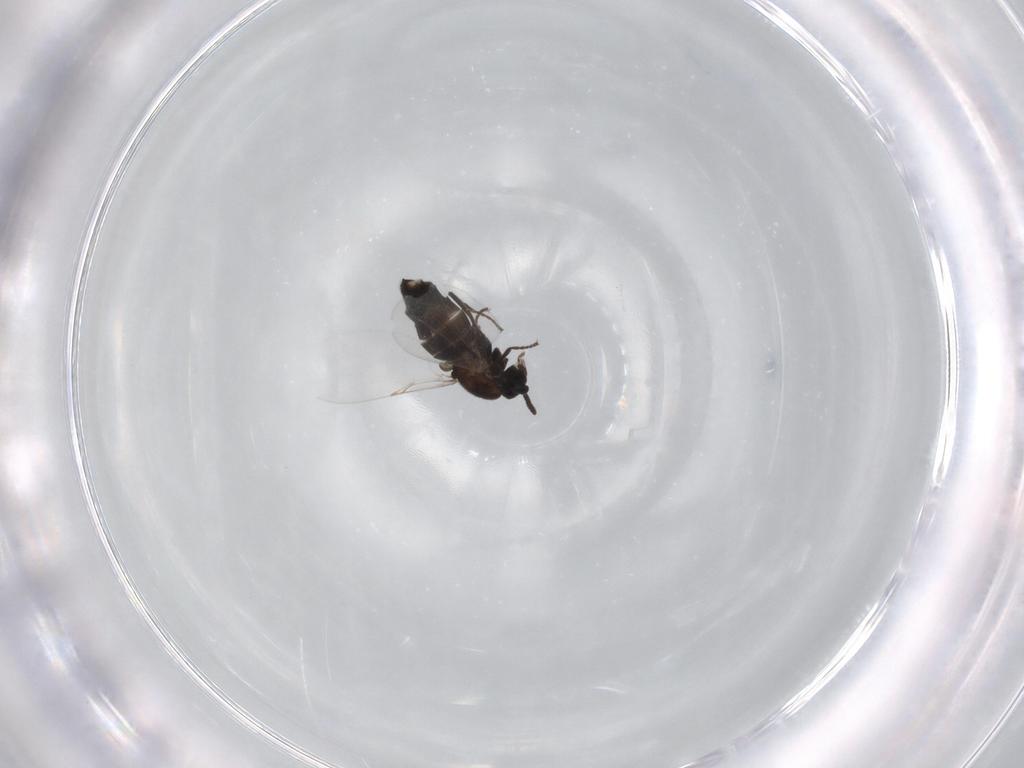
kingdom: Animalia
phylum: Arthropoda
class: Insecta
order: Diptera
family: Scatopsidae
